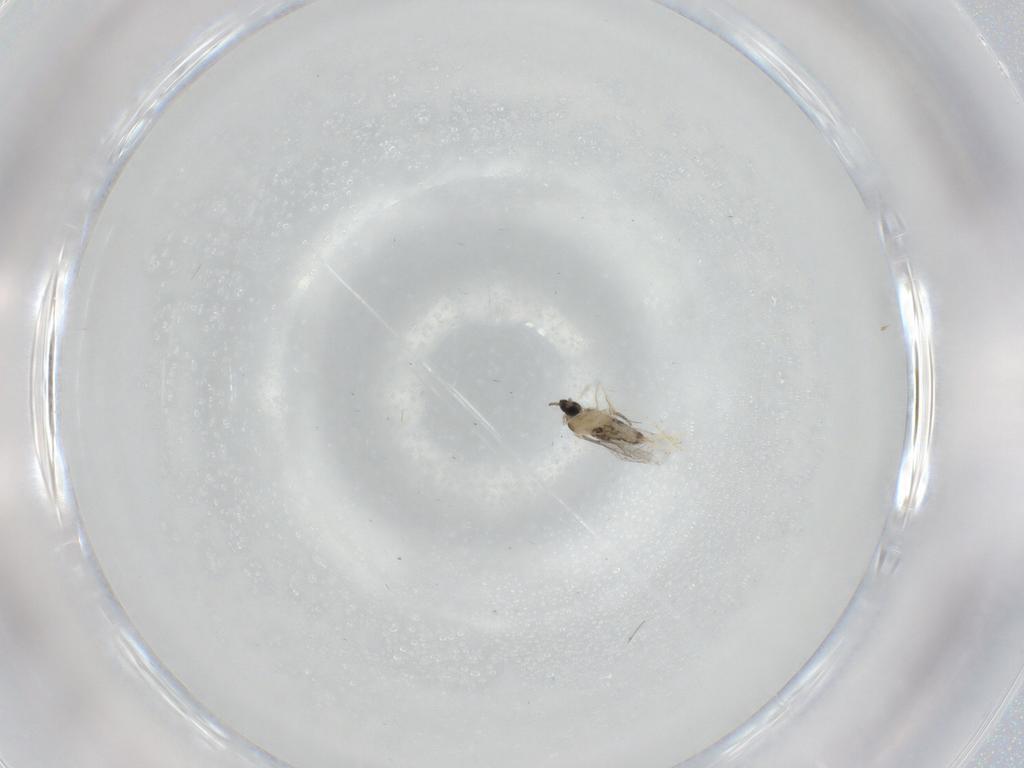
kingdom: Animalia
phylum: Arthropoda
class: Insecta
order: Diptera
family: Cecidomyiidae
